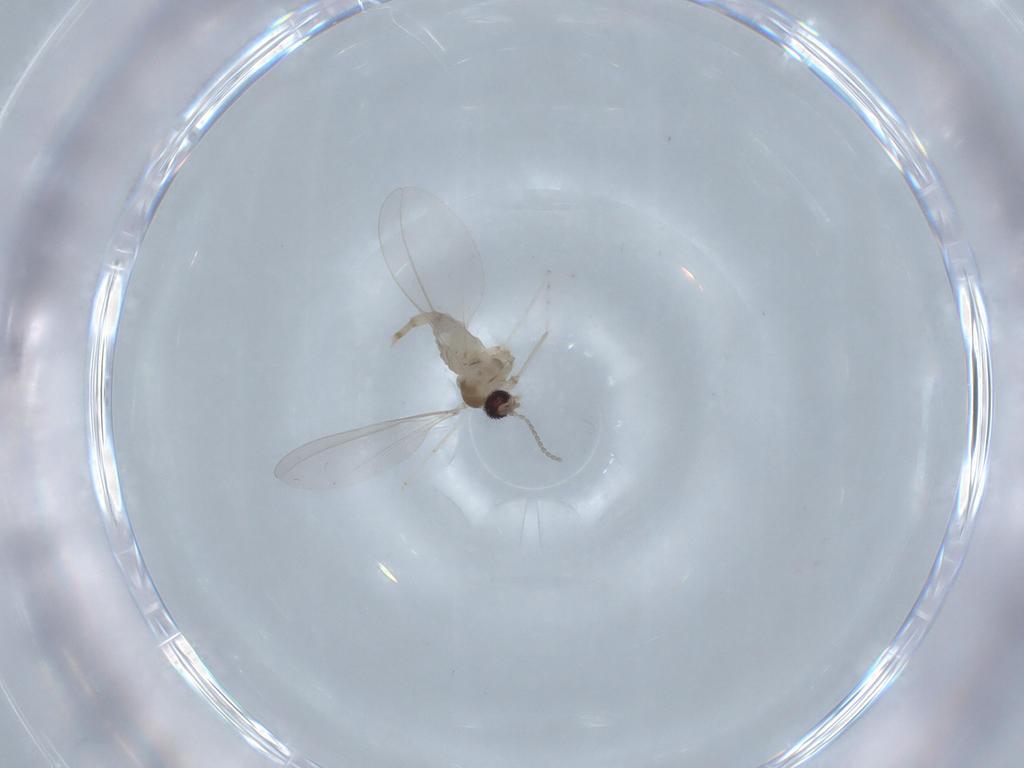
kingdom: Animalia
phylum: Arthropoda
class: Insecta
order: Diptera
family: Cecidomyiidae
